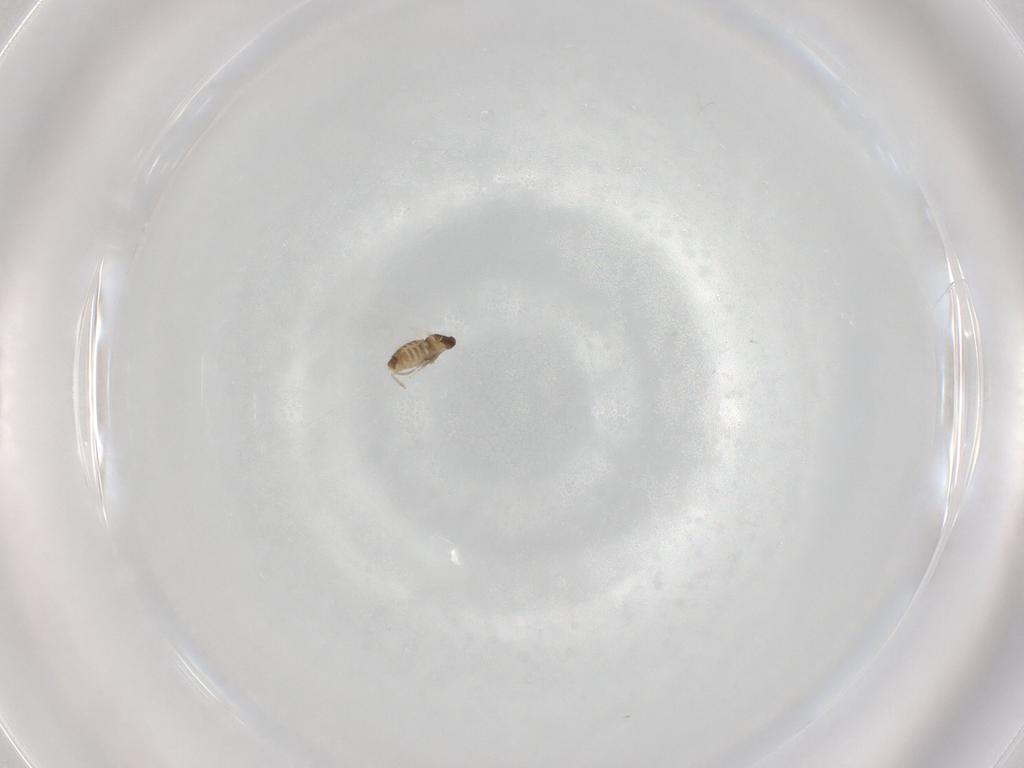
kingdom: Animalia
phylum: Arthropoda
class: Insecta
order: Diptera
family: Cecidomyiidae
